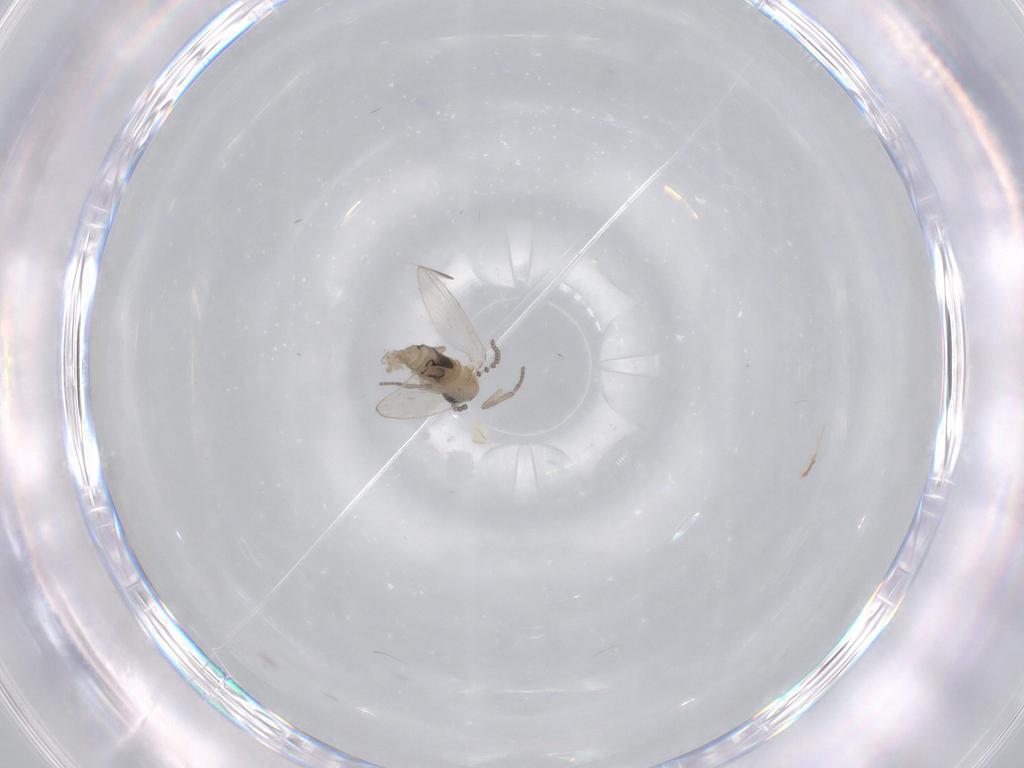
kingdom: Animalia
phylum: Arthropoda
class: Insecta
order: Diptera
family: Psychodidae
